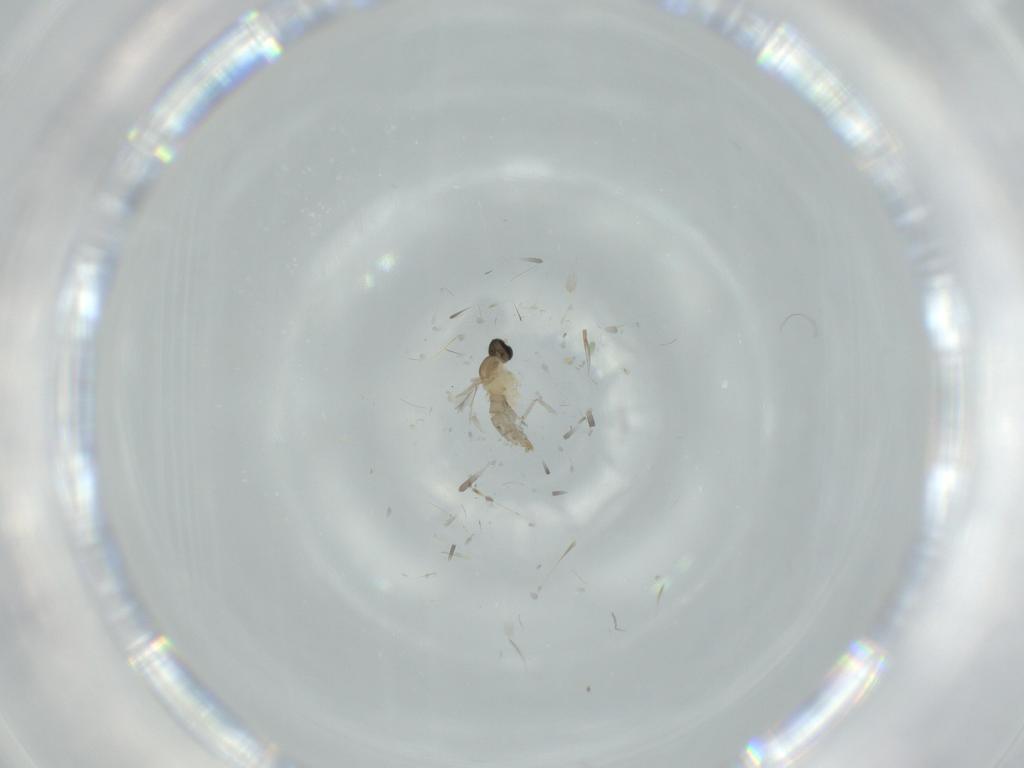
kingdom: Animalia
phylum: Arthropoda
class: Insecta
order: Diptera
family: Cecidomyiidae
